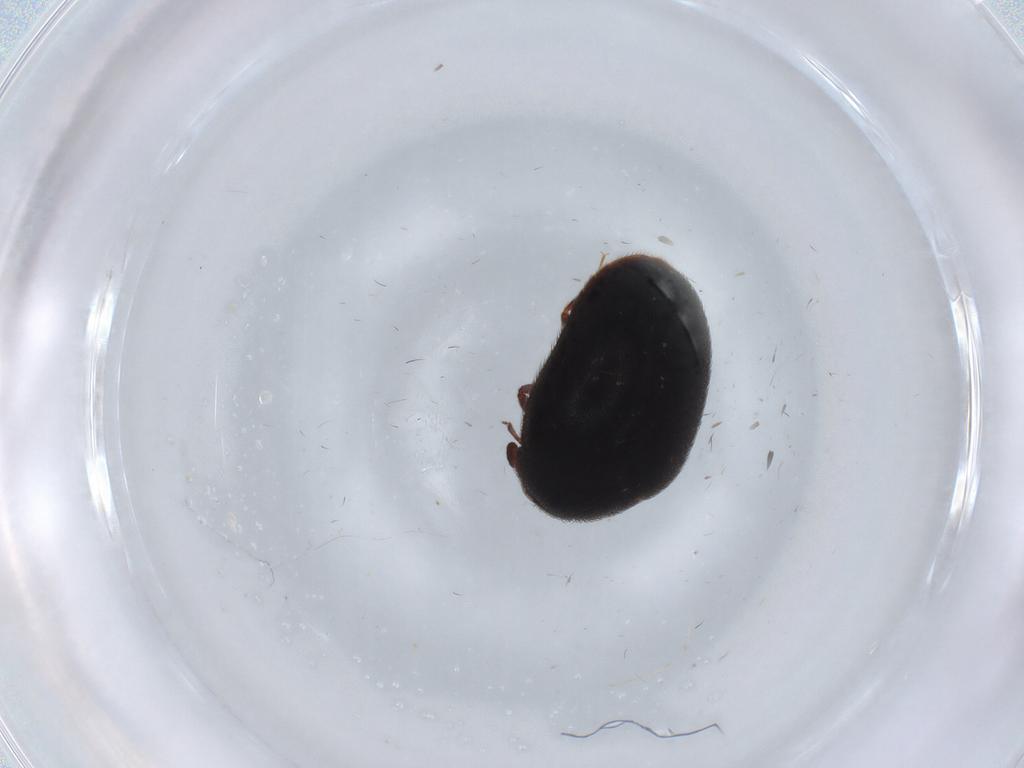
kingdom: Animalia
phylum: Arthropoda
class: Insecta
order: Coleoptera
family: Dermestidae
